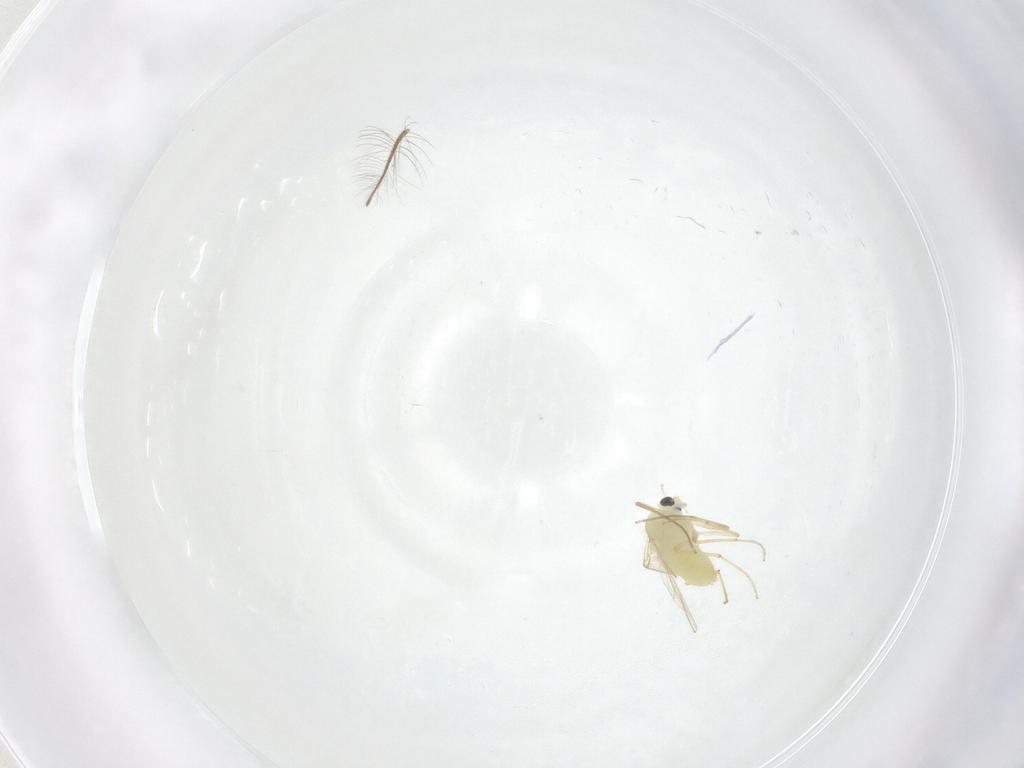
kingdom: Animalia
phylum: Arthropoda
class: Insecta
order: Diptera
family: Chironomidae
